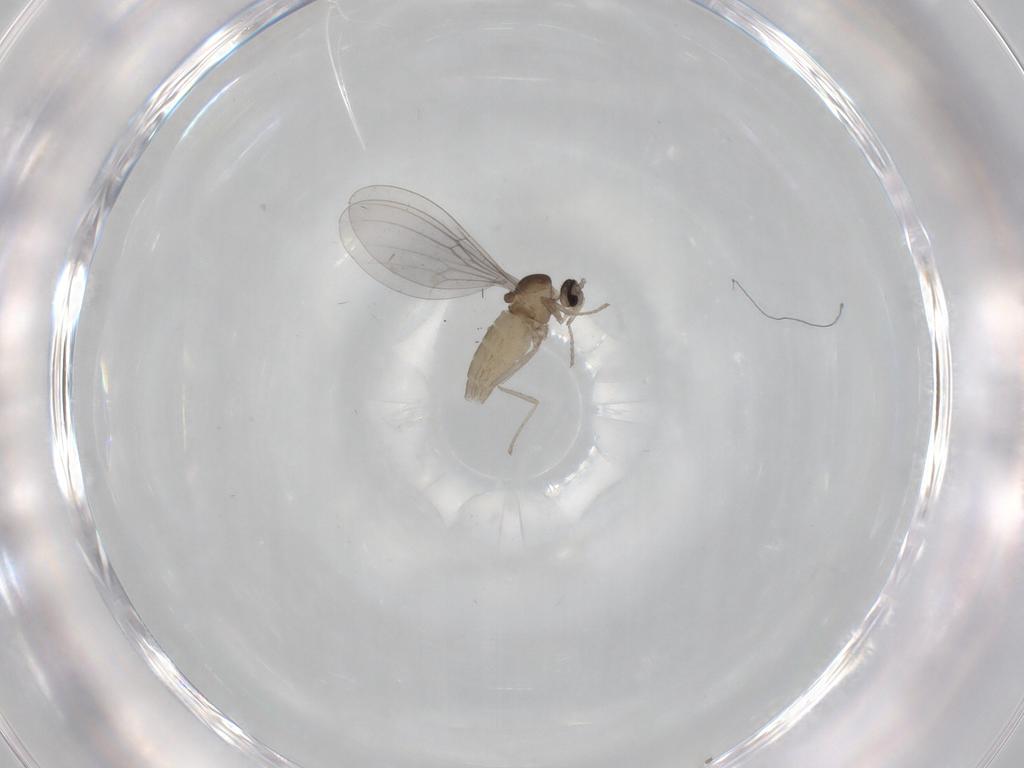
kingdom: Animalia
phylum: Arthropoda
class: Insecta
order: Diptera
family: Cecidomyiidae
